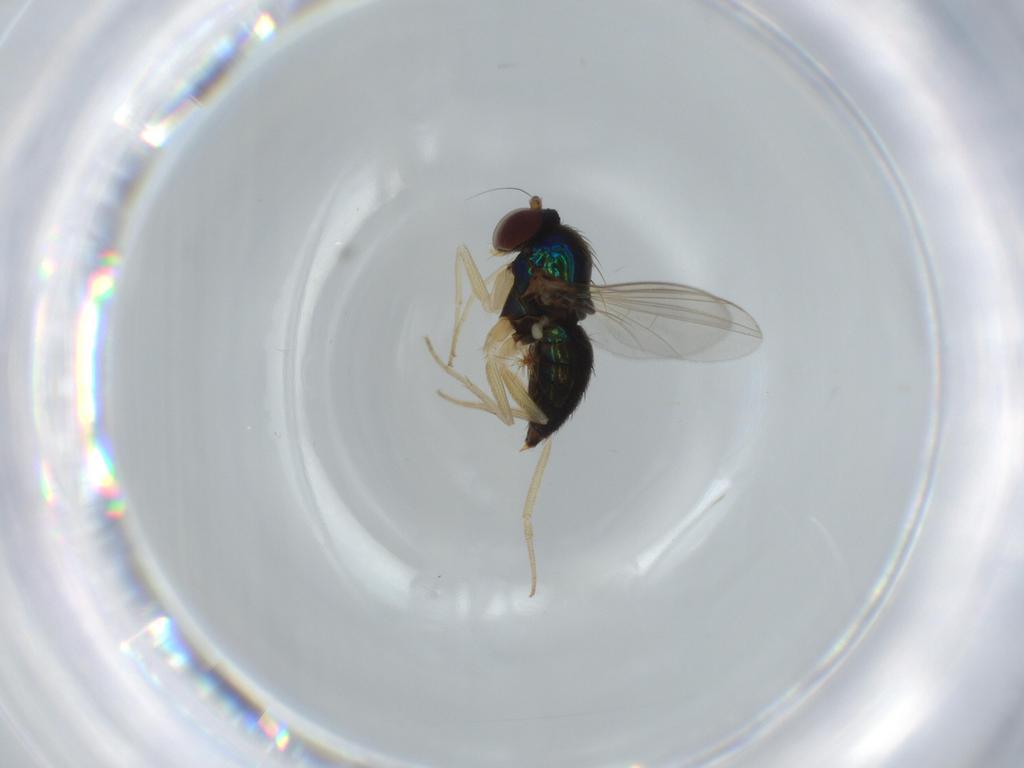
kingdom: Animalia
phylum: Arthropoda
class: Insecta
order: Diptera
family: Dolichopodidae
